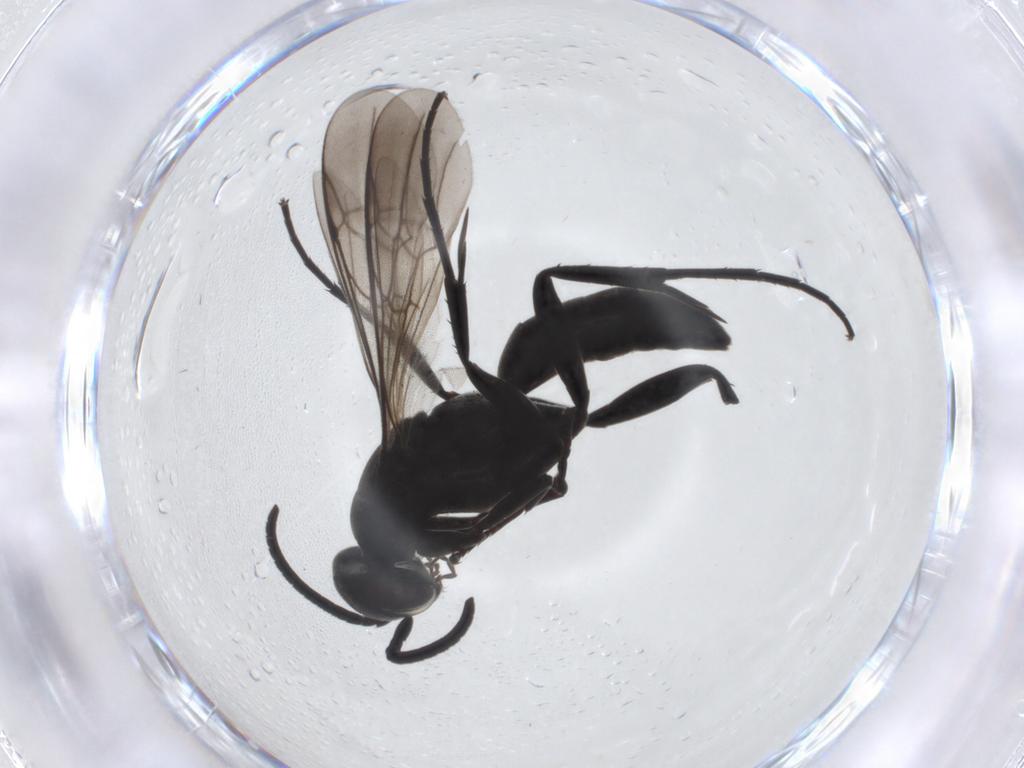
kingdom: Animalia
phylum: Arthropoda
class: Insecta
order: Hymenoptera
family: Pompilidae
